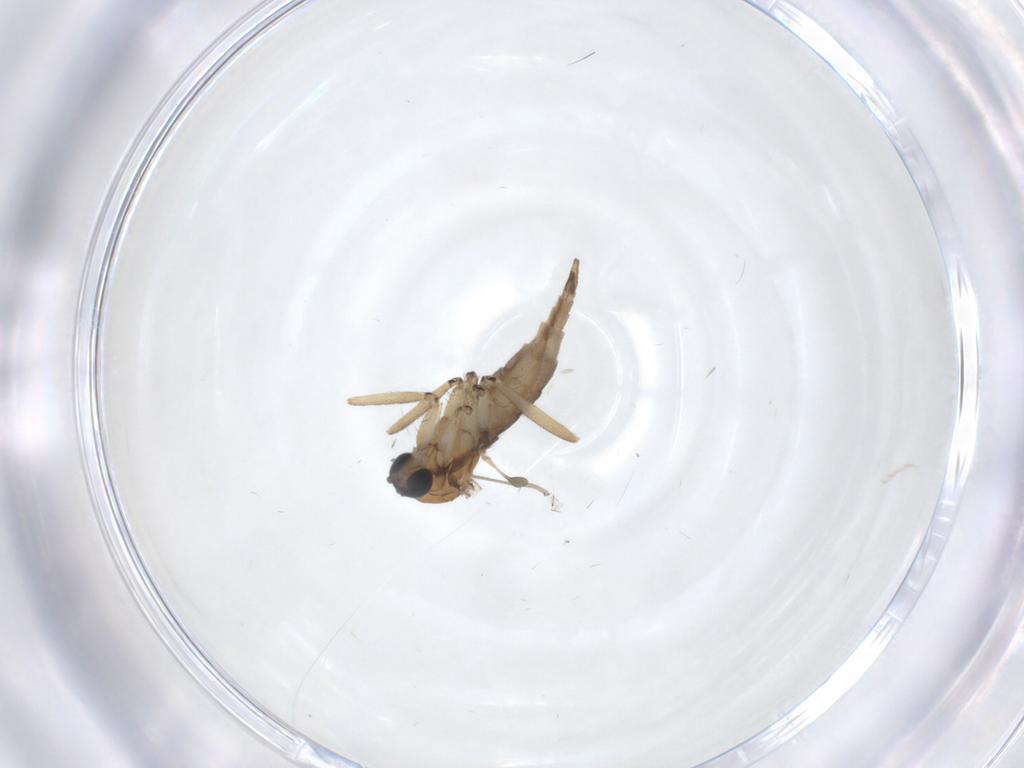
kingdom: Animalia
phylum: Arthropoda
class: Insecta
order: Diptera
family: Sciaridae
